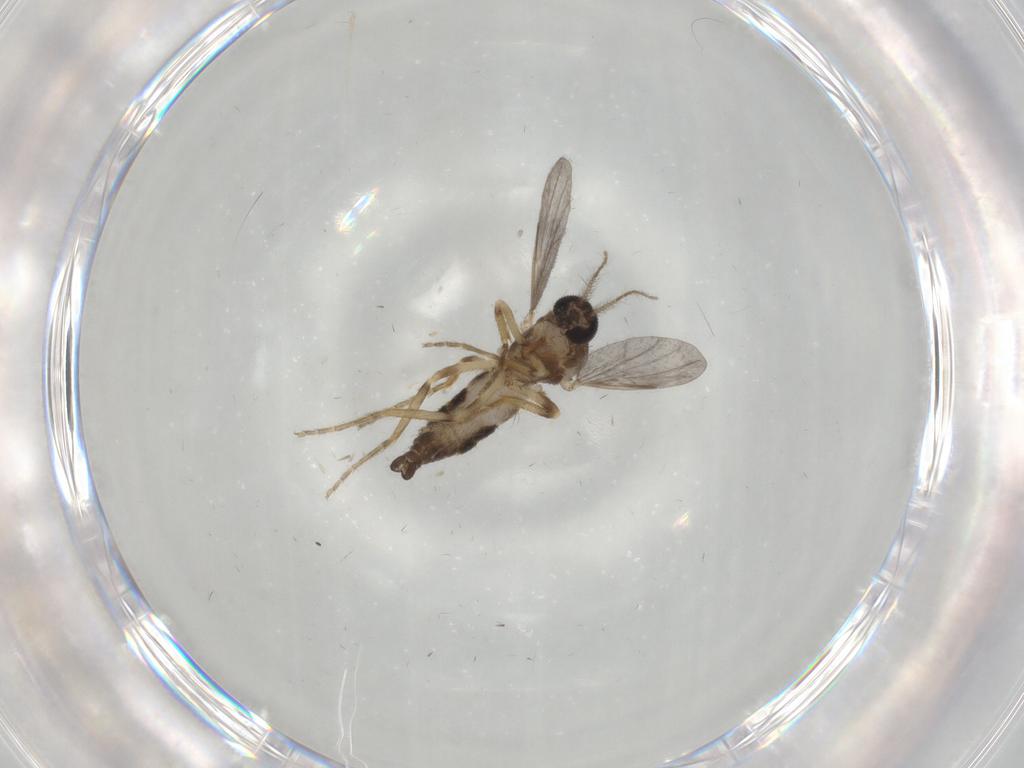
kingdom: Animalia
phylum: Arthropoda
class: Insecta
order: Diptera
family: Ceratopogonidae
